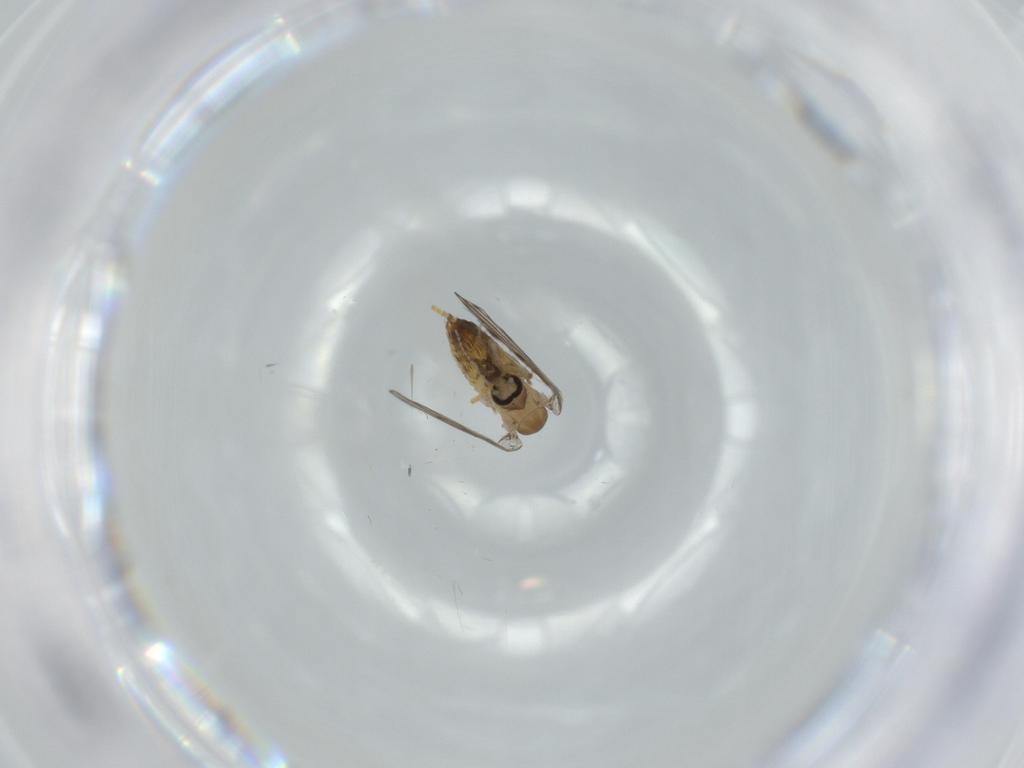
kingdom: Animalia
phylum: Arthropoda
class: Insecta
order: Diptera
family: Psychodidae
